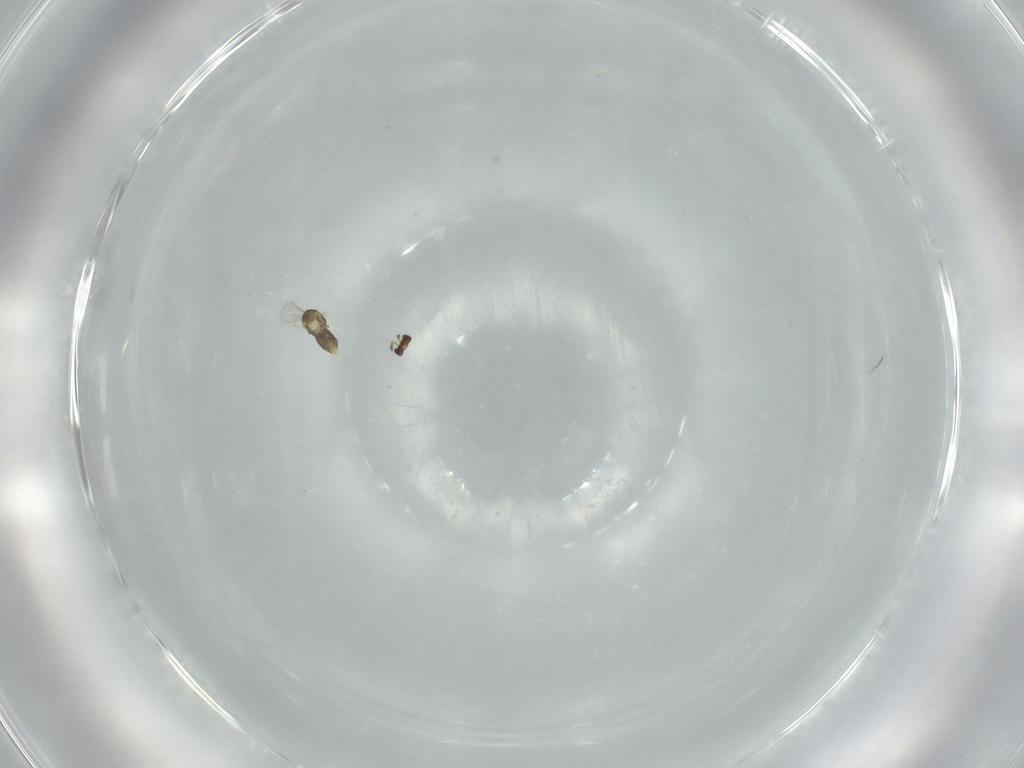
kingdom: Animalia
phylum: Arthropoda
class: Insecta
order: Hymenoptera
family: Aphelinidae
